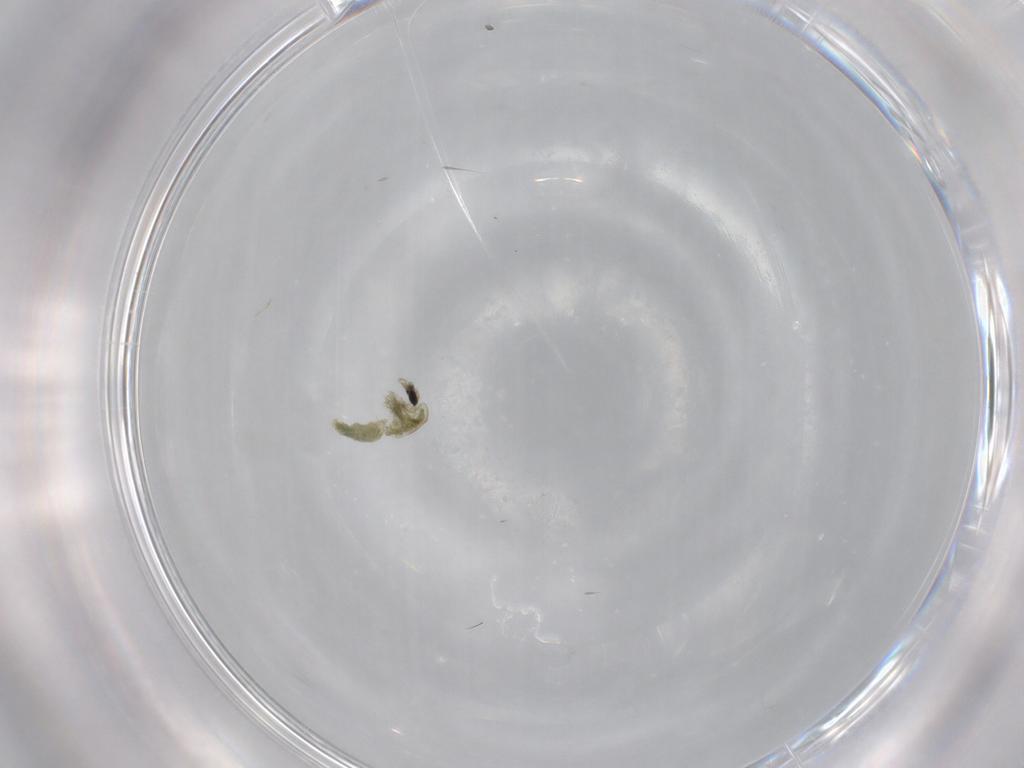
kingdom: Animalia
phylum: Arthropoda
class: Insecta
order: Diptera
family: Chironomidae
